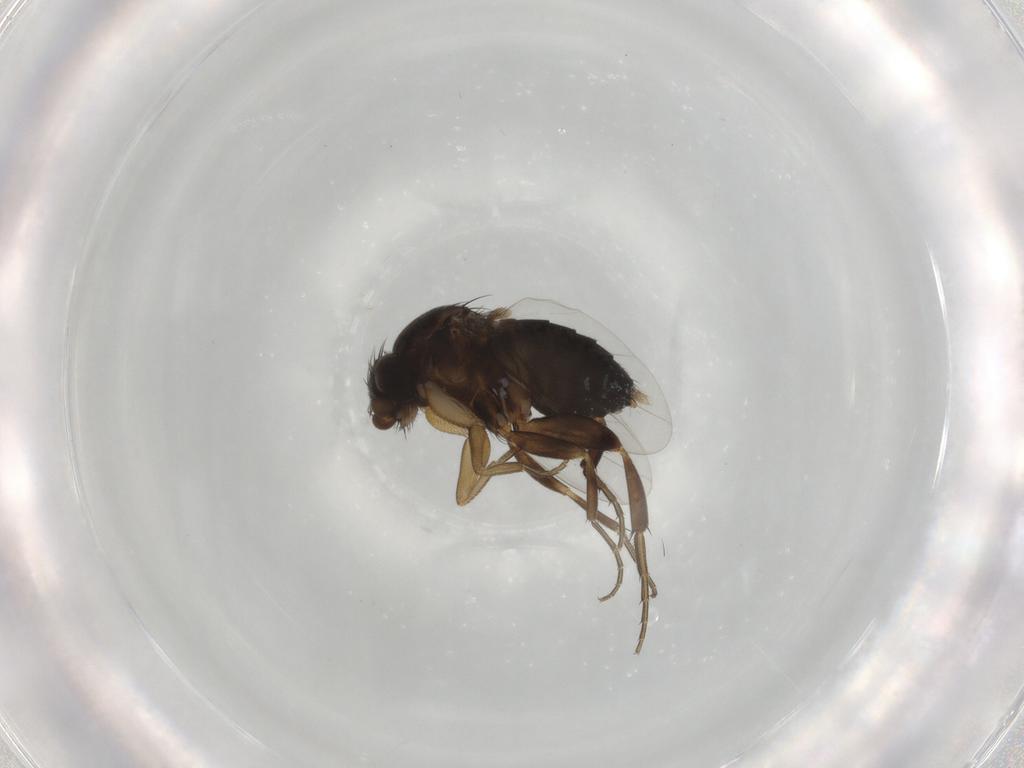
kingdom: Animalia
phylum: Arthropoda
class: Insecta
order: Diptera
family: Phoridae
